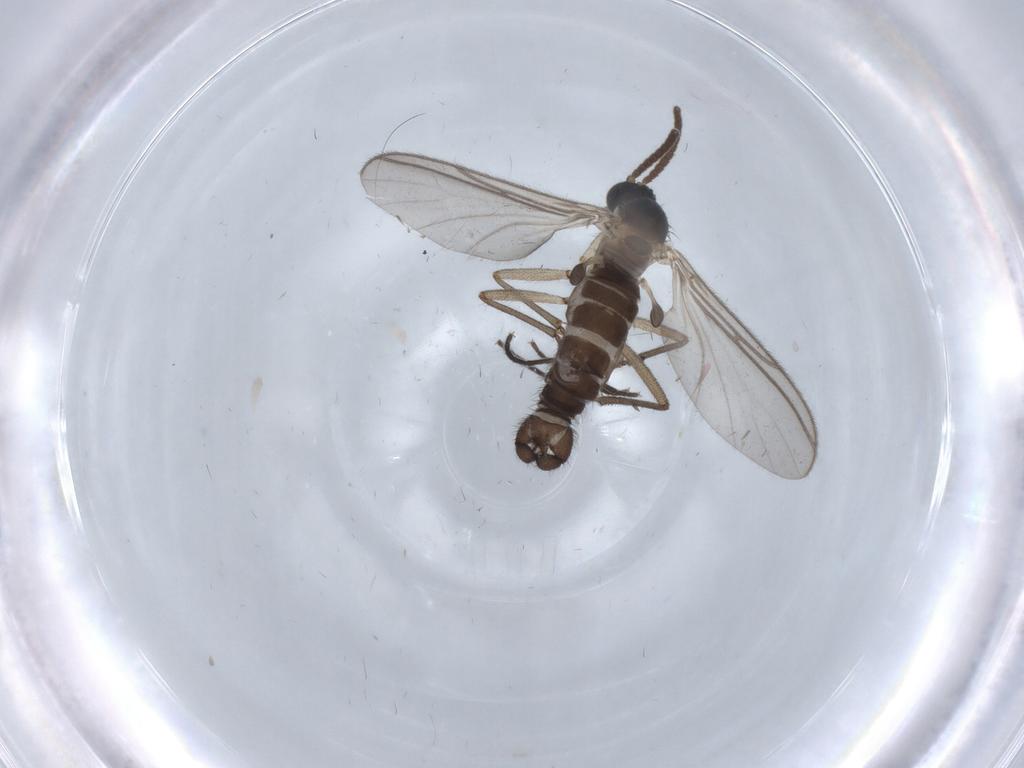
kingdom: Animalia
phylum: Arthropoda
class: Insecta
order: Diptera
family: Sciaridae
